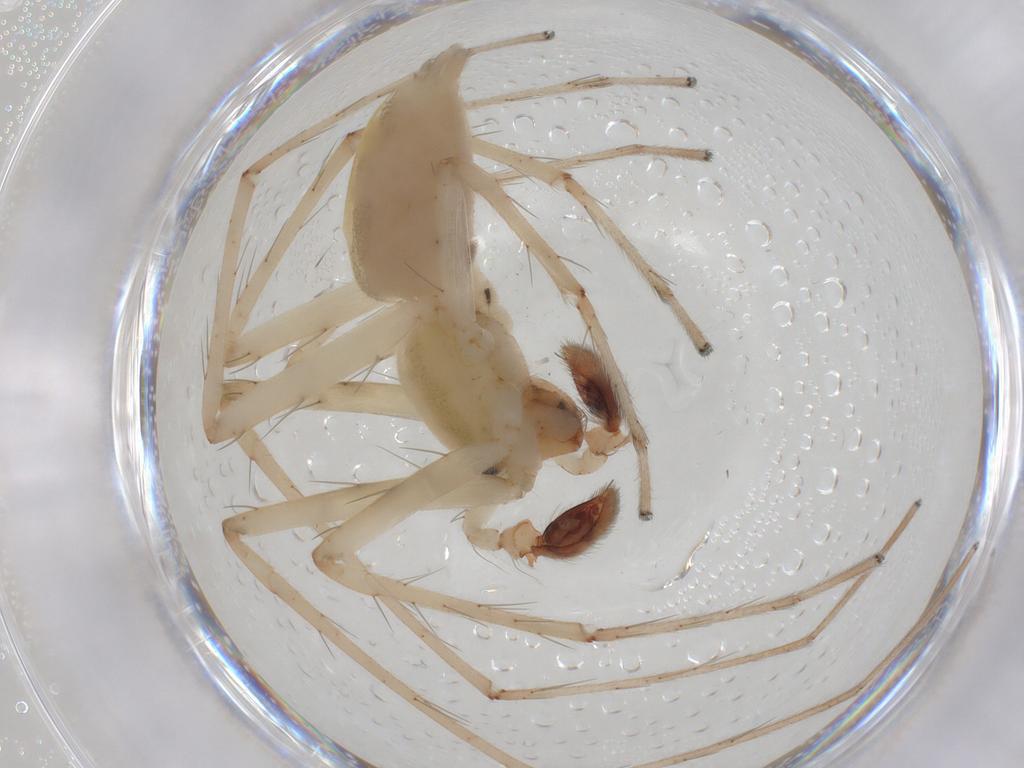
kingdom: Animalia
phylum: Arthropoda
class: Arachnida
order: Araneae
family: Anyphaenidae
